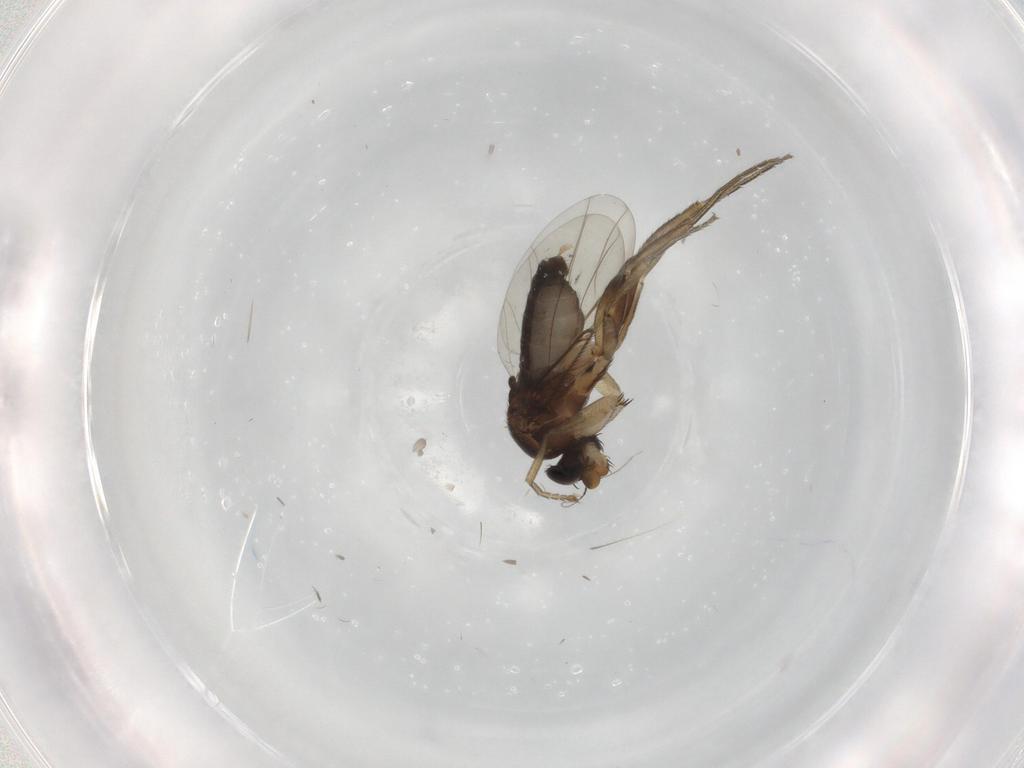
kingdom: Animalia
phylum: Arthropoda
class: Insecta
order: Diptera
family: Phoridae
